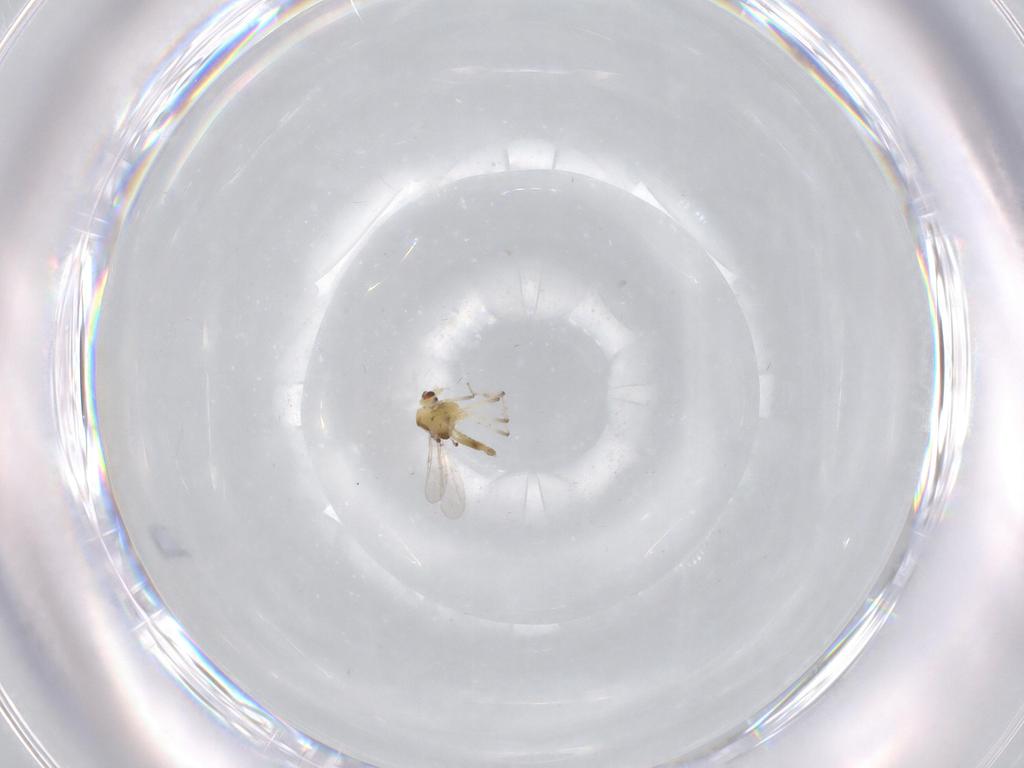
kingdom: Animalia
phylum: Arthropoda
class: Insecta
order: Diptera
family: Chironomidae
